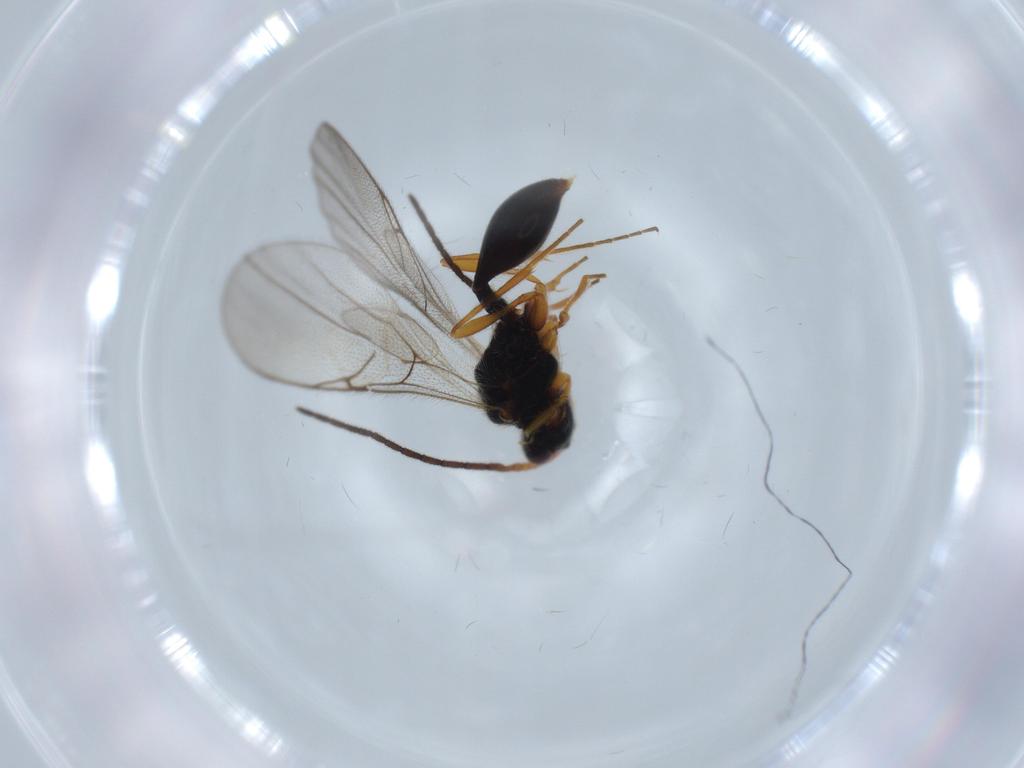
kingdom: Animalia
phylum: Arthropoda
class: Insecta
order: Hymenoptera
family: Diapriidae
